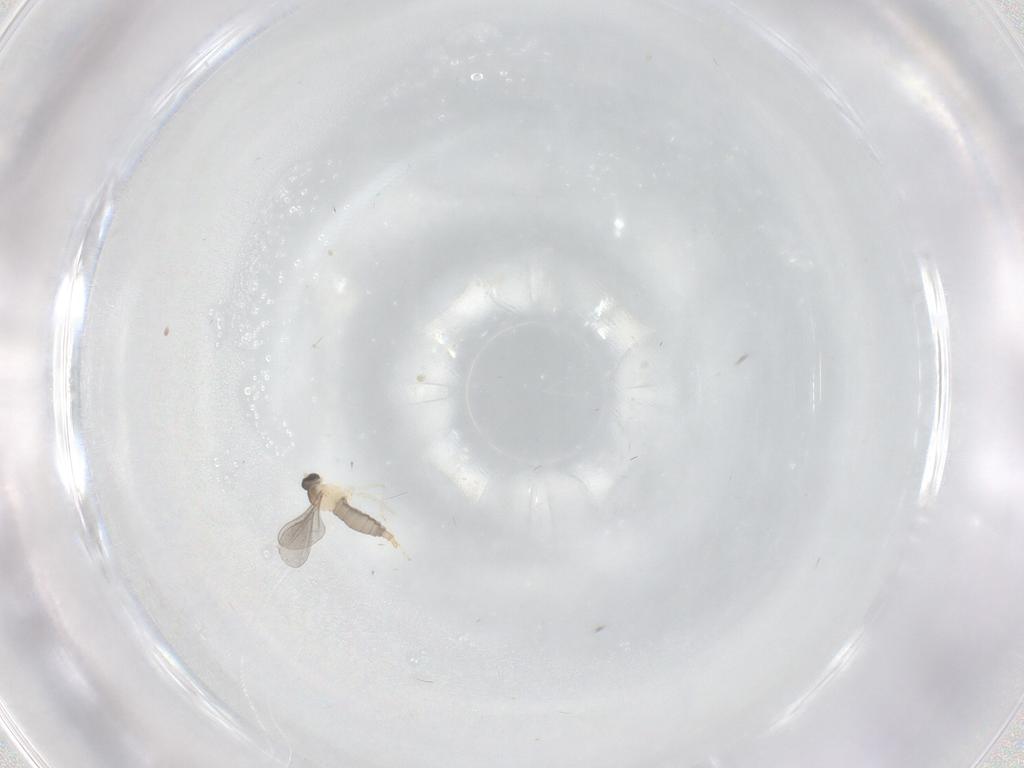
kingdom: Animalia
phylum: Arthropoda
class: Insecta
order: Diptera
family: Cecidomyiidae
